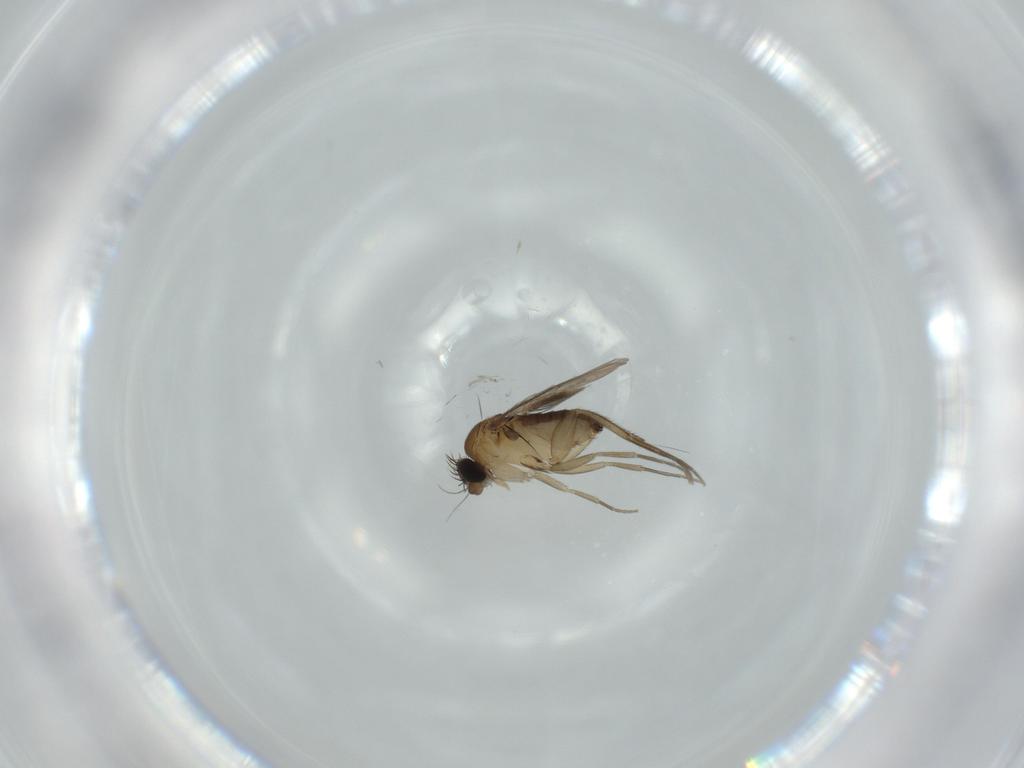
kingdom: Animalia
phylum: Arthropoda
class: Insecta
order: Diptera
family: Phoridae
